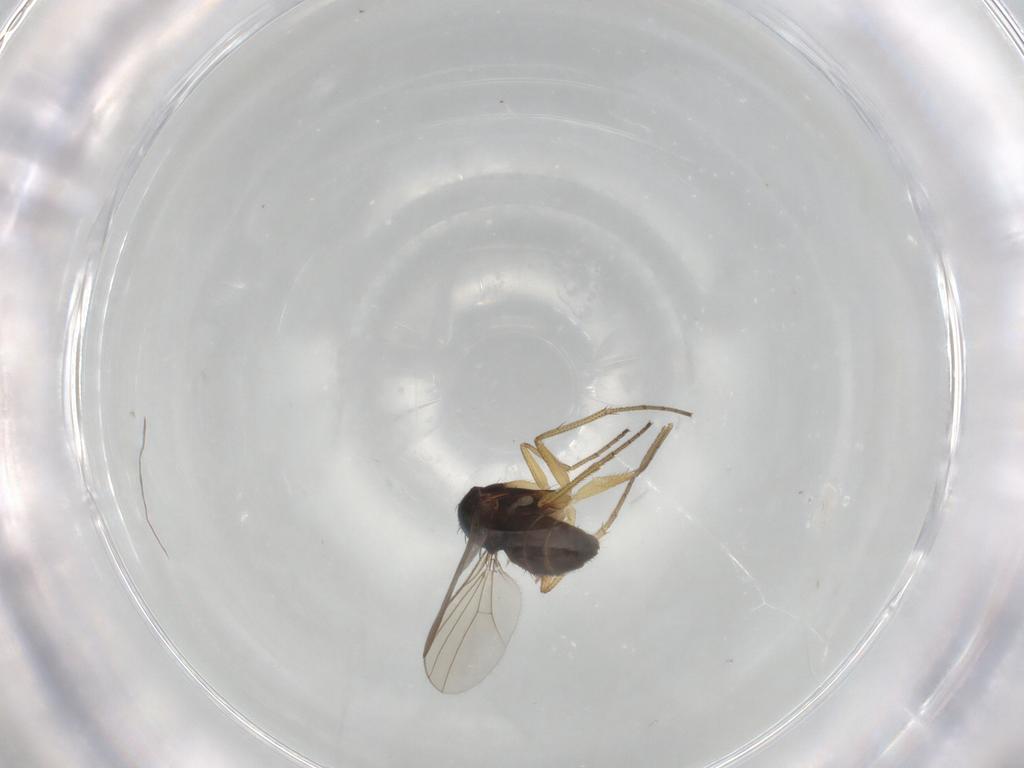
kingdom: Animalia
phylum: Arthropoda
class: Insecta
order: Diptera
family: Dolichopodidae
